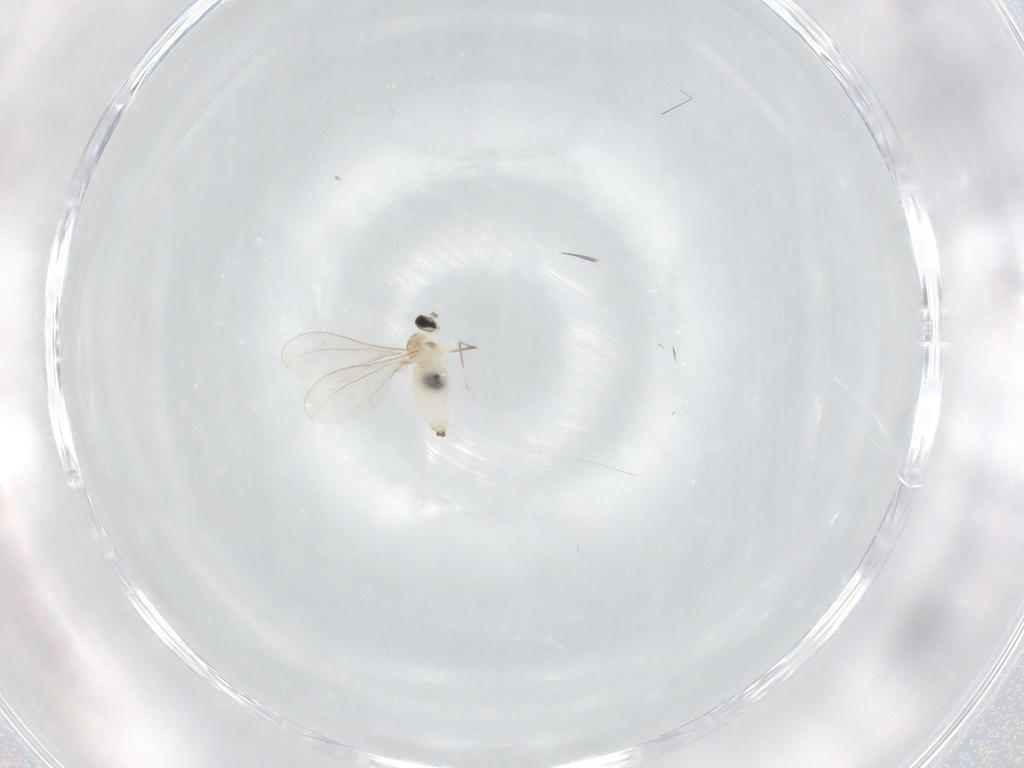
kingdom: Animalia
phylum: Arthropoda
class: Insecta
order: Diptera
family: Cecidomyiidae
